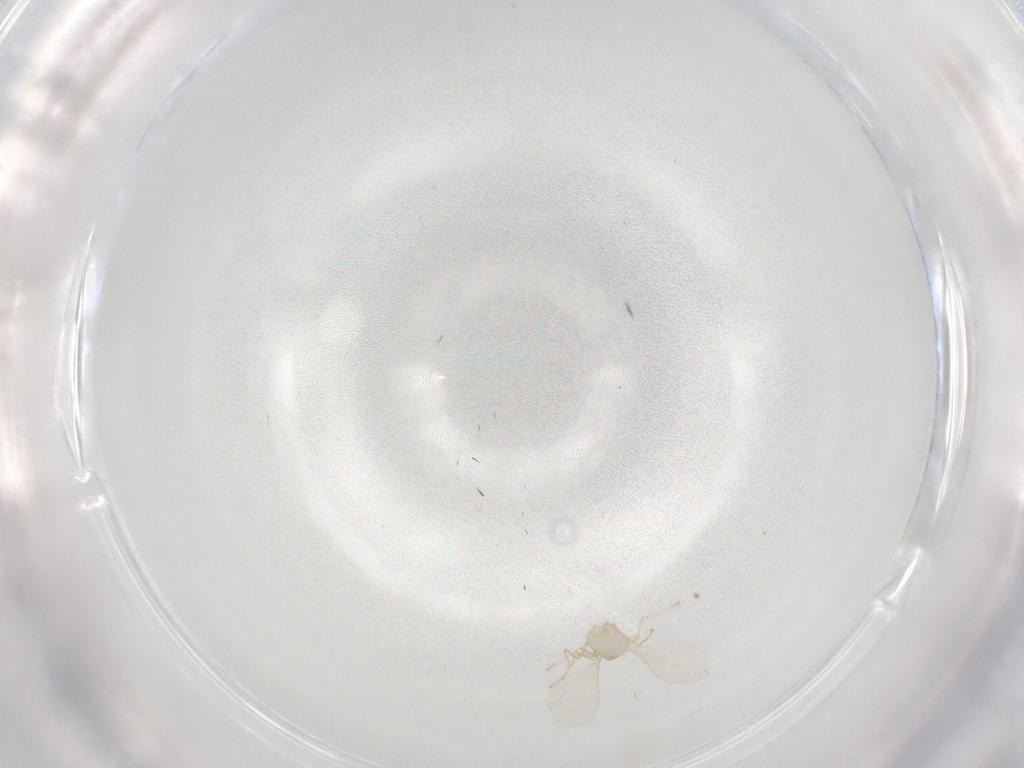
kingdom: Animalia
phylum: Arthropoda
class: Insecta
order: Diptera
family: Cecidomyiidae
